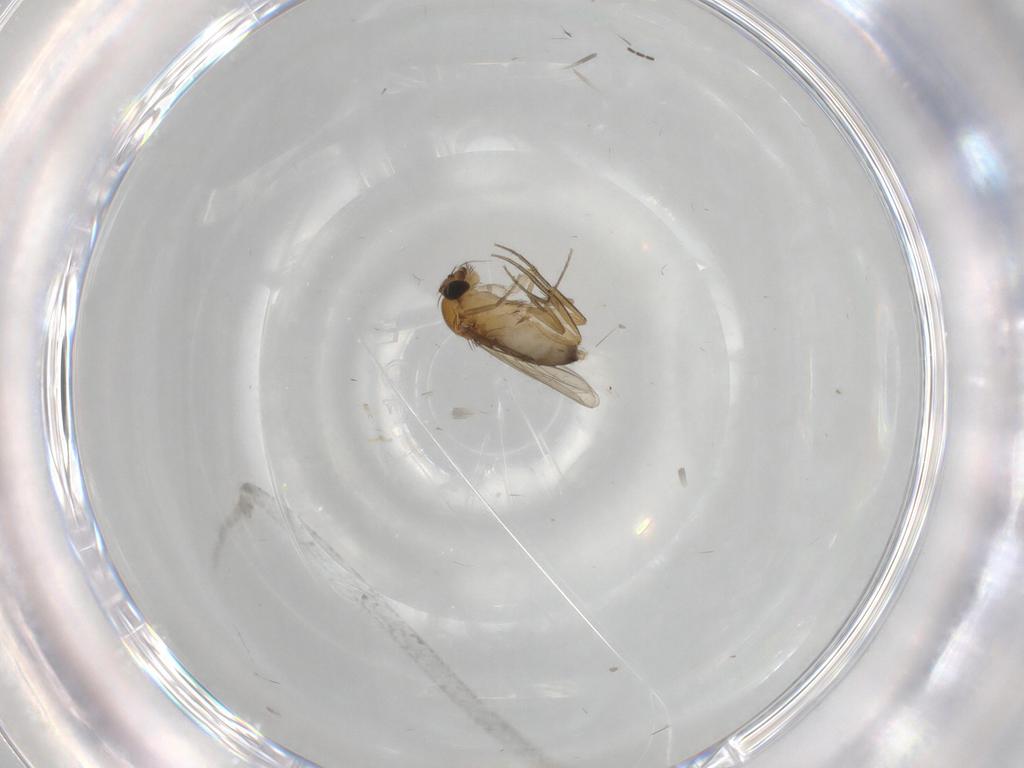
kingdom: Animalia
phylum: Arthropoda
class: Insecta
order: Diptera
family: Phoridae
